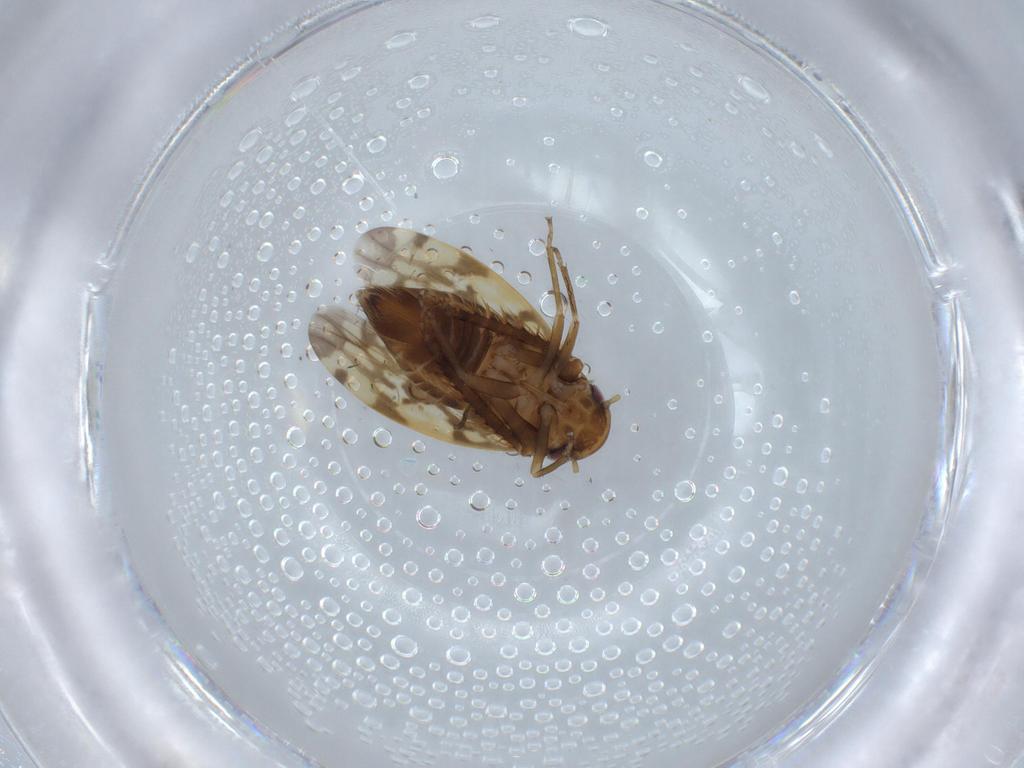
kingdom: Animalia
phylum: Arthropoda
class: Insecta
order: Hemiptera
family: Cicadellidae
